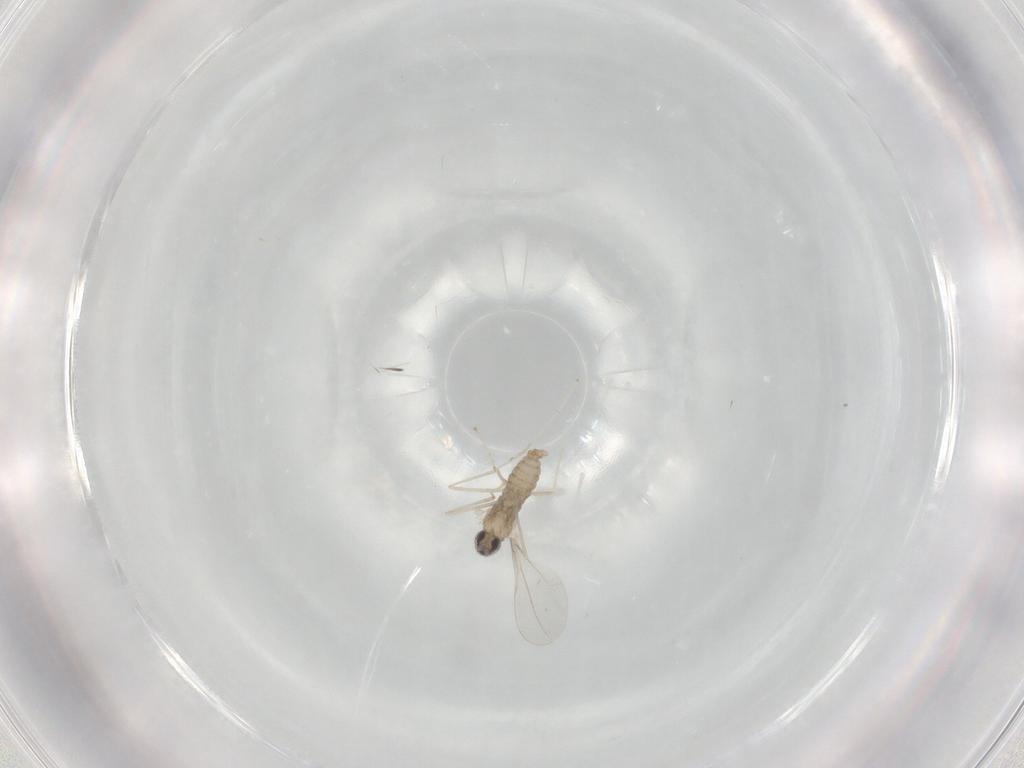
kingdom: Animalia
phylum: Arthropoda
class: Insecta
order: Diptera
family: Cecidomyiidae
